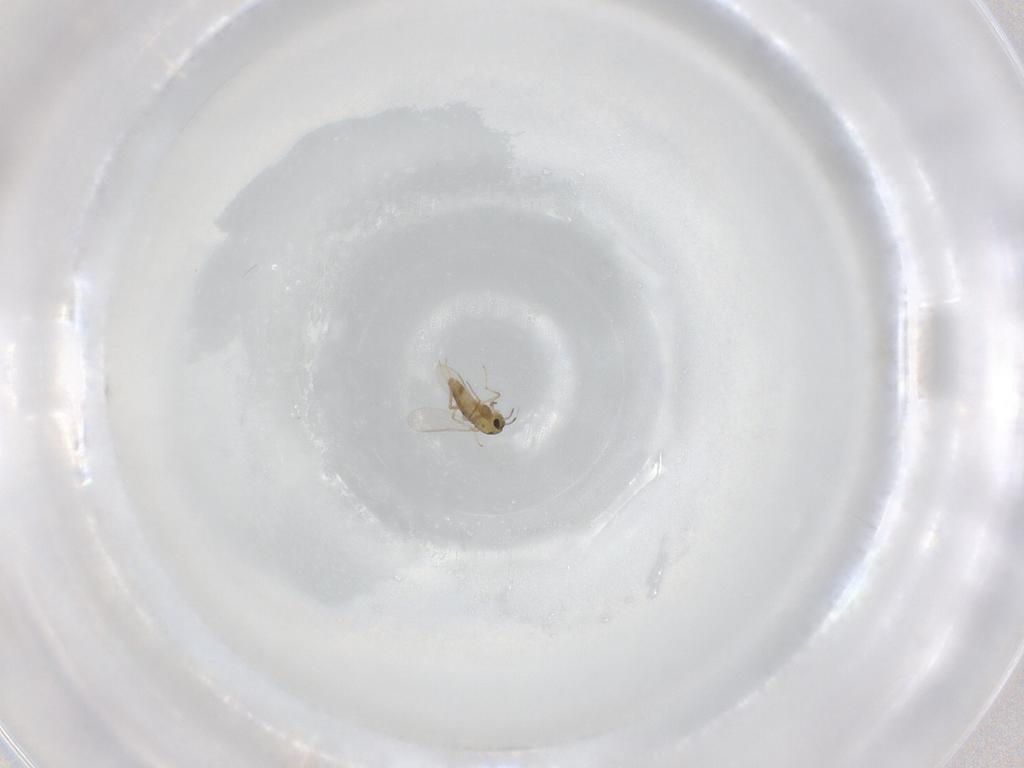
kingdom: Animalia
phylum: Arthropoda
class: Insecta
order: Diptera
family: Chironomidae
